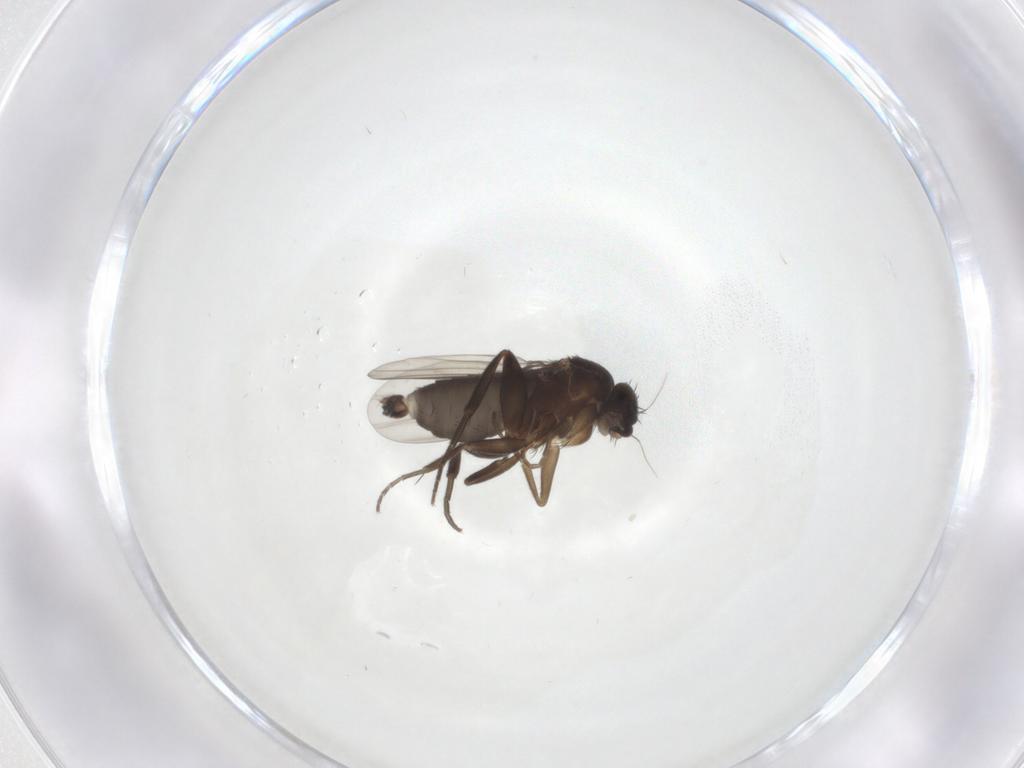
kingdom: Animalia
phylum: Arthropoda
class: Insecta
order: Diptera
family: Phoridae
